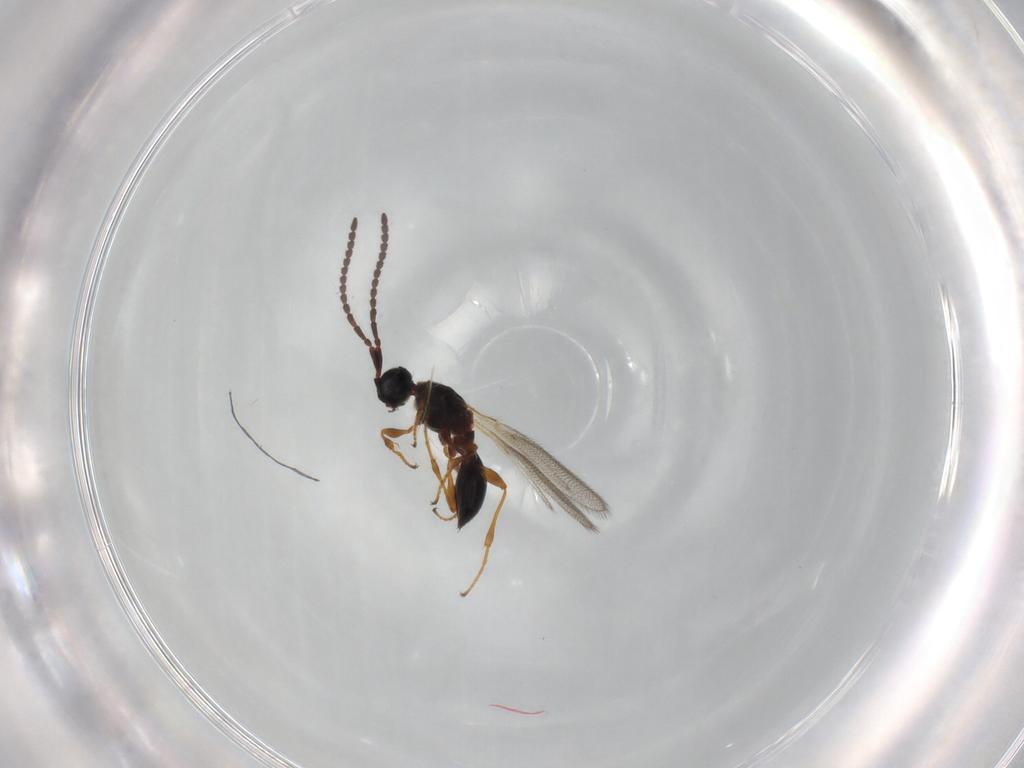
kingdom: Animalia
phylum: Arthropoda
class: Insecta
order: Hymenoptera
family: Diapriidae
